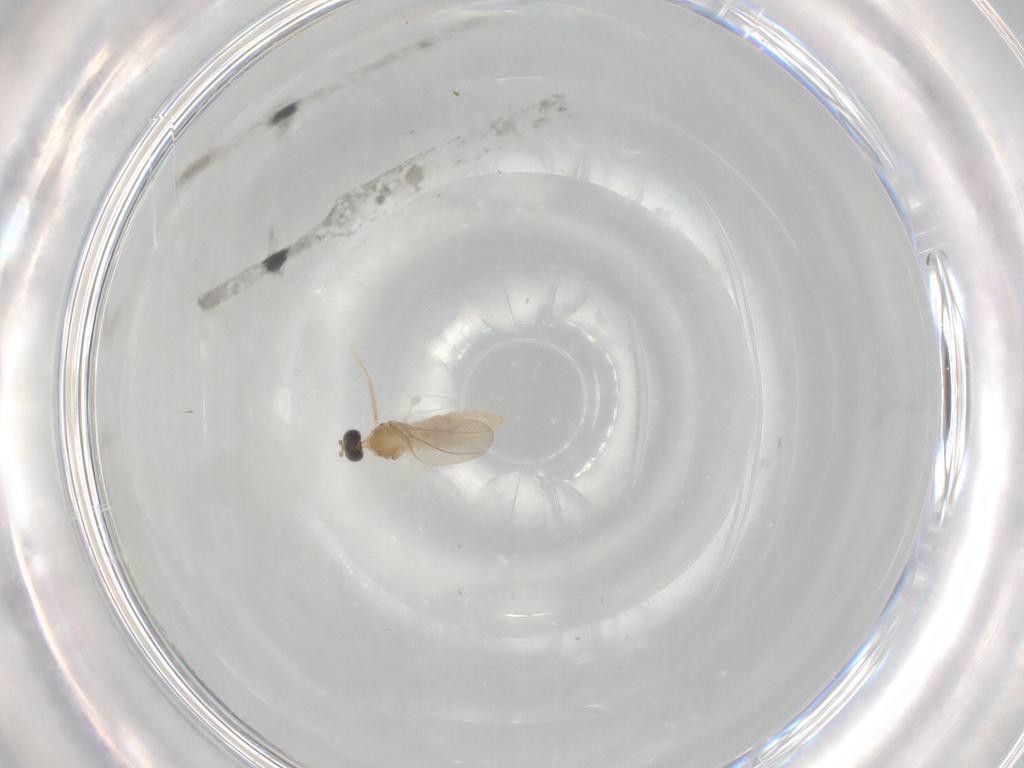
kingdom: Animalia
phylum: Arthropoda
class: Insecta
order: Diptera
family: Cecidomyiidae
